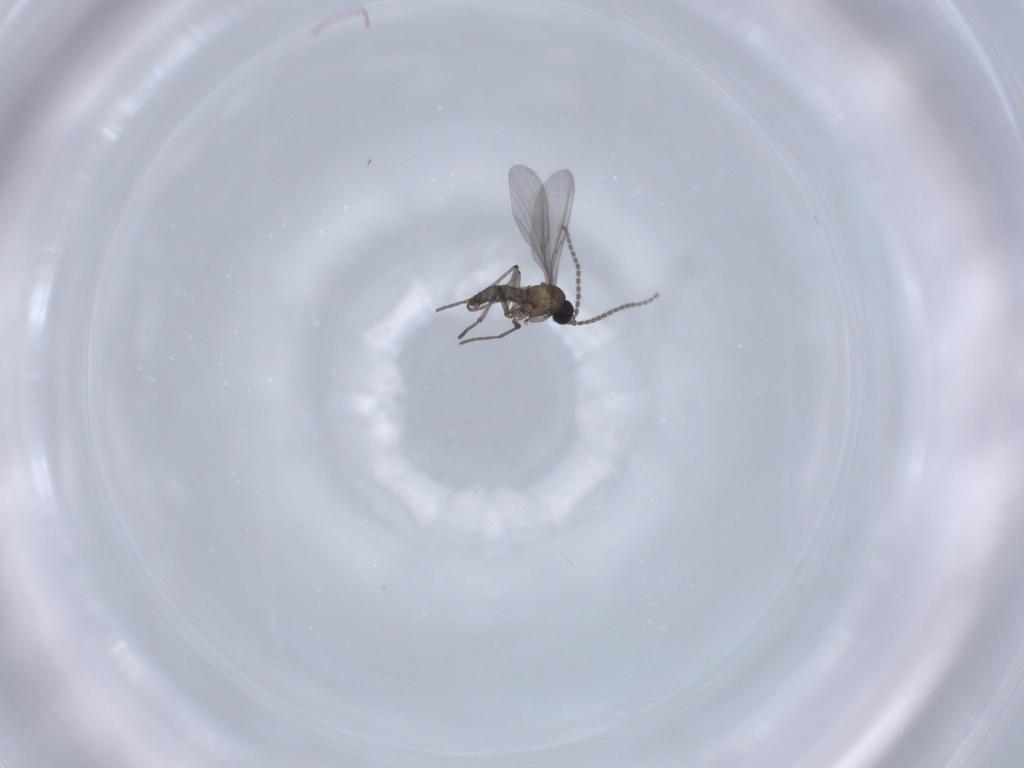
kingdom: Animalia
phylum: Arthropoda
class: Insecta
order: Diptera
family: Sciaridae
